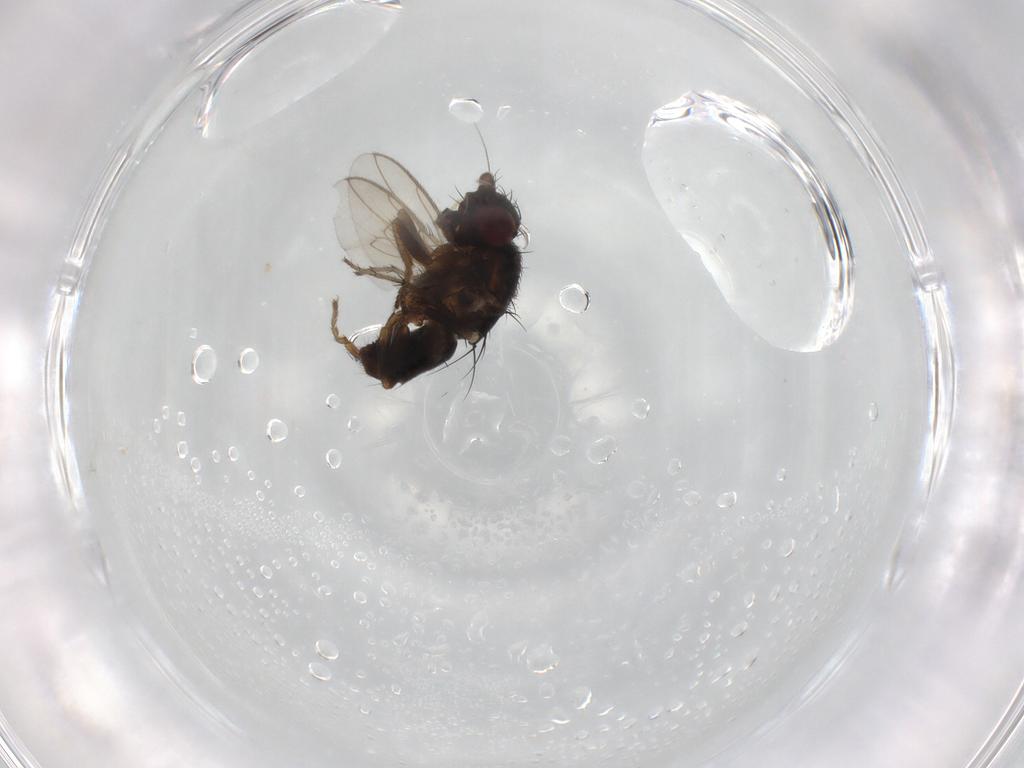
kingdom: Animalia
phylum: Arthropoda
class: Insecta
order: Diptera
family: Sphaeroceridae
